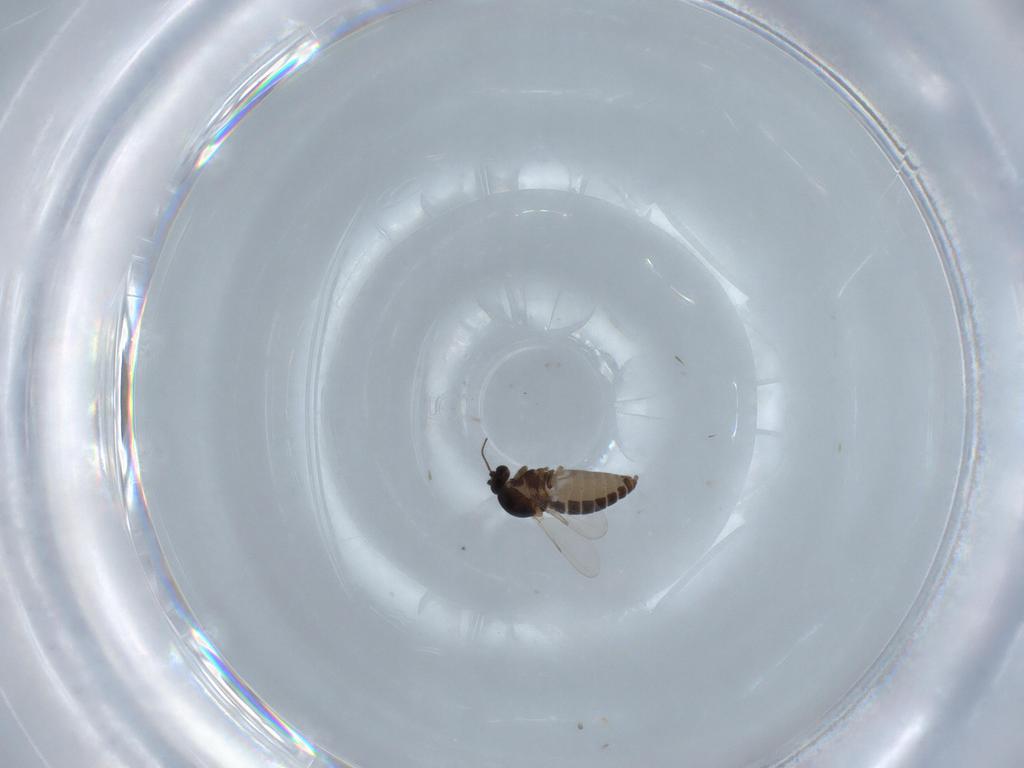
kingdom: Animalia
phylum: Arthropoda
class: Insecta
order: Diptera
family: Ceratopogonidae
